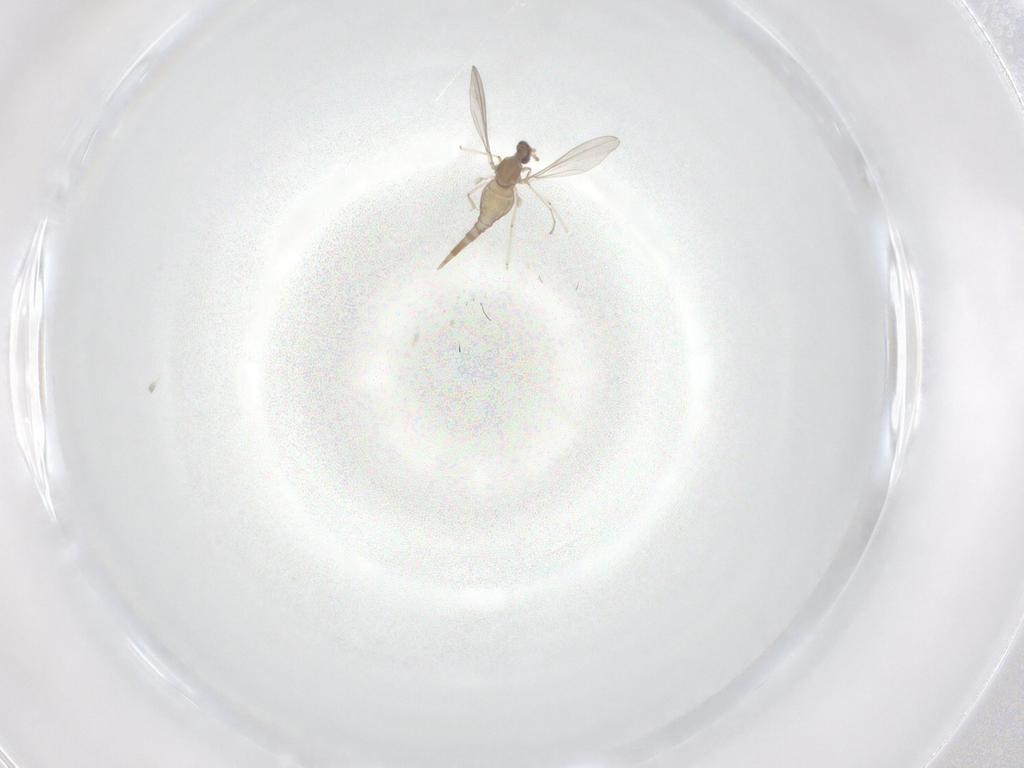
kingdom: Animalia
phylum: Arthropoda
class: Insecta
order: Diptera
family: Cecidomyiidae
